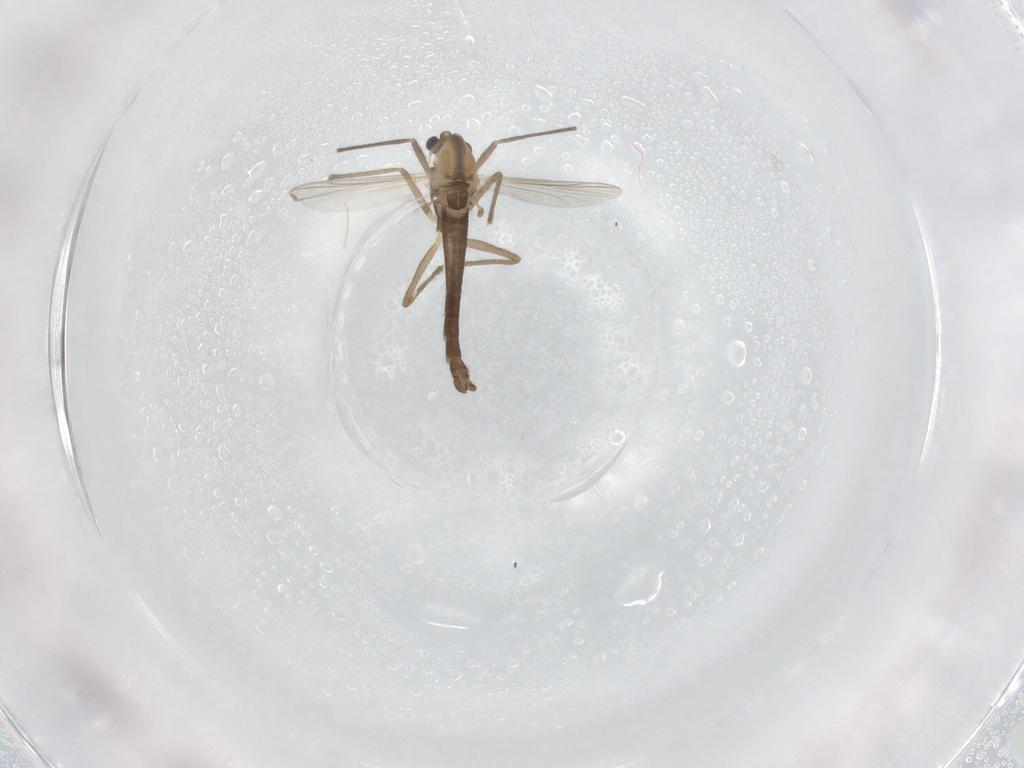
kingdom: Animalia
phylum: Arthropoda
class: Insecta
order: Diptera
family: Chironomidae
